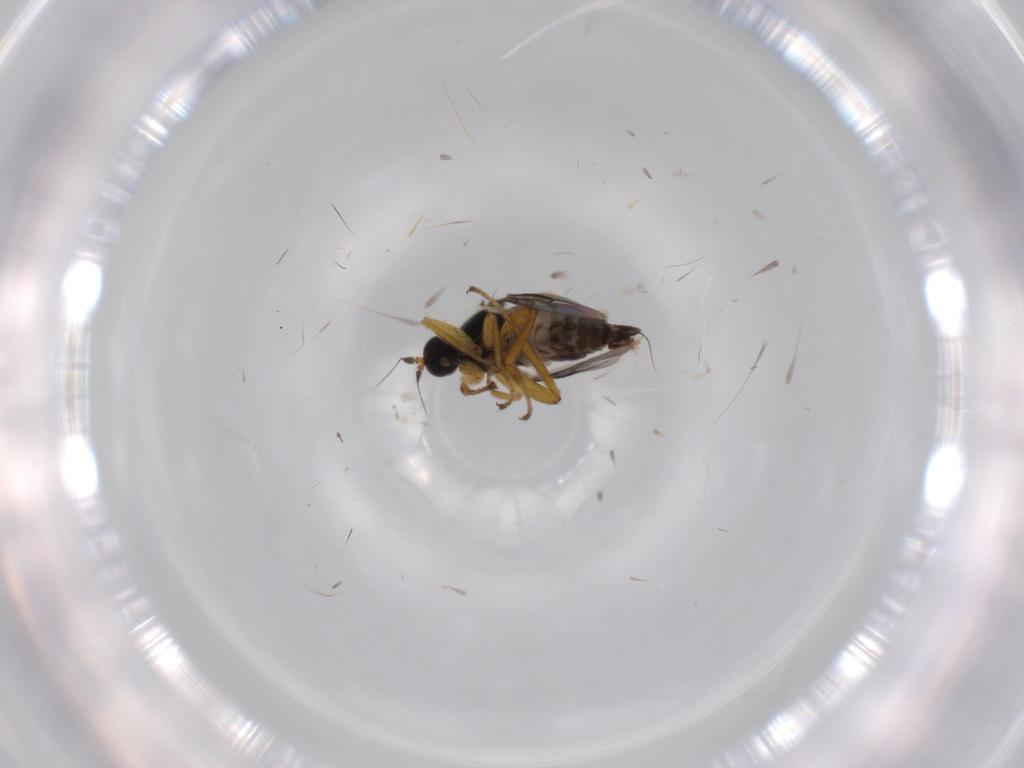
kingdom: Animalia
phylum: Arthropoda
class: Insecta
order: Diptera
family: Hybotidae
